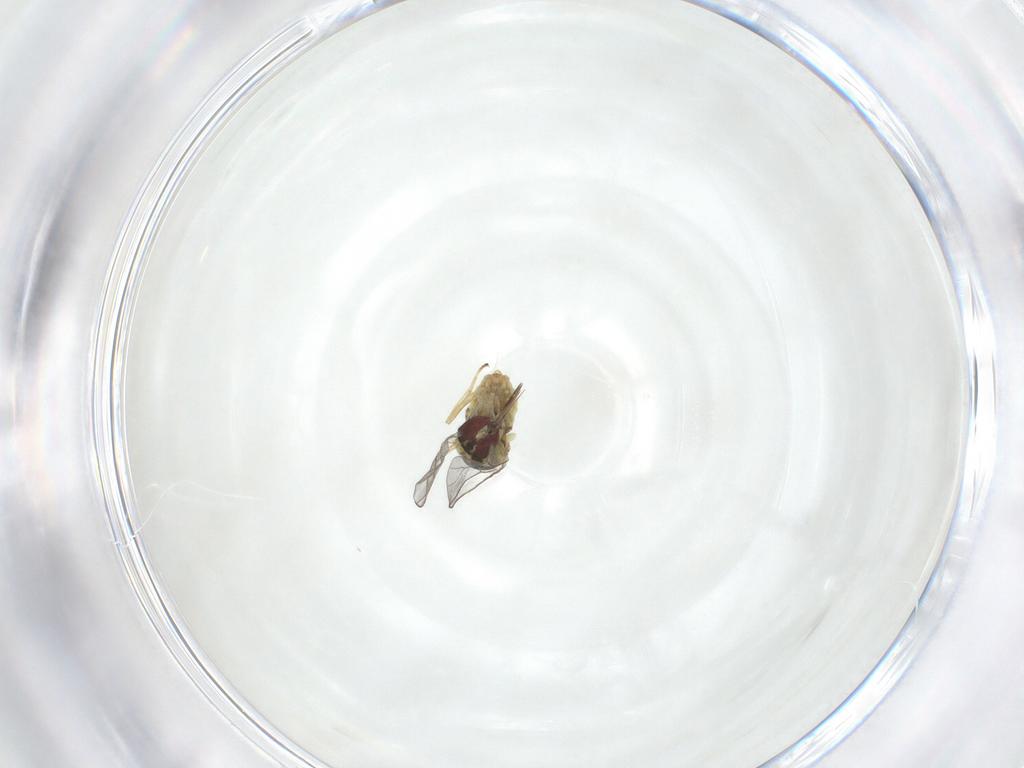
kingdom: Animalia
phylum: Arthropoda
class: Insecta
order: Diptera
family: Mythicomyiidae
